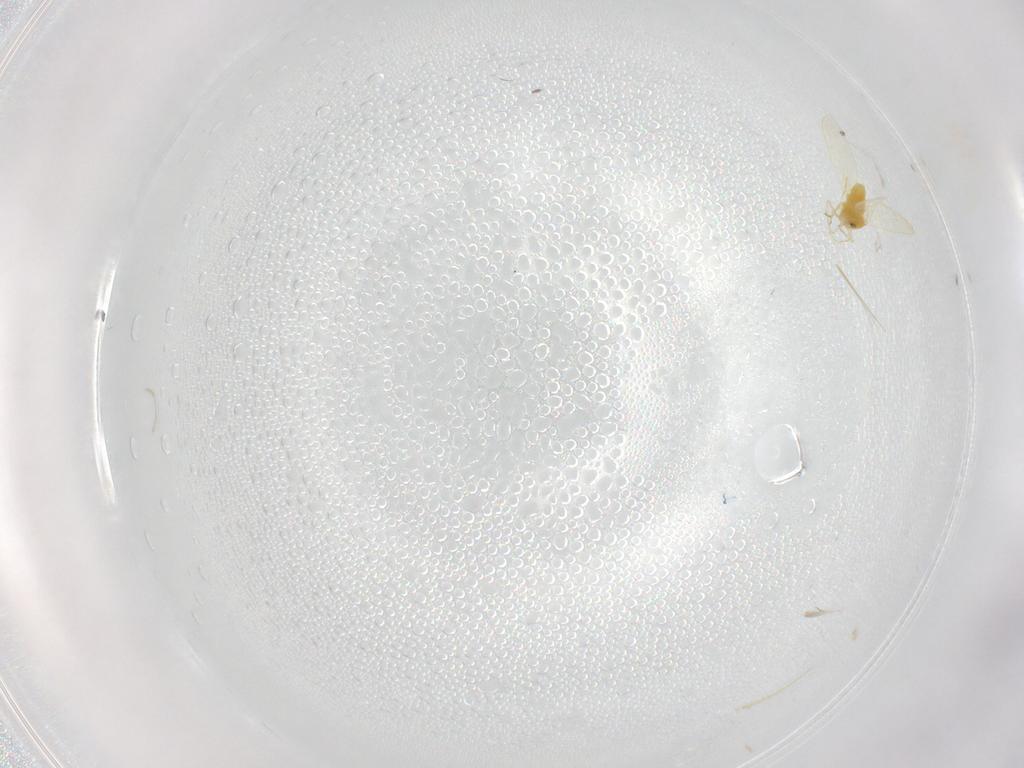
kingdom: Animalia
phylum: Arthropoda
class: Insecta
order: Hemiptera
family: Aleyrodidae
